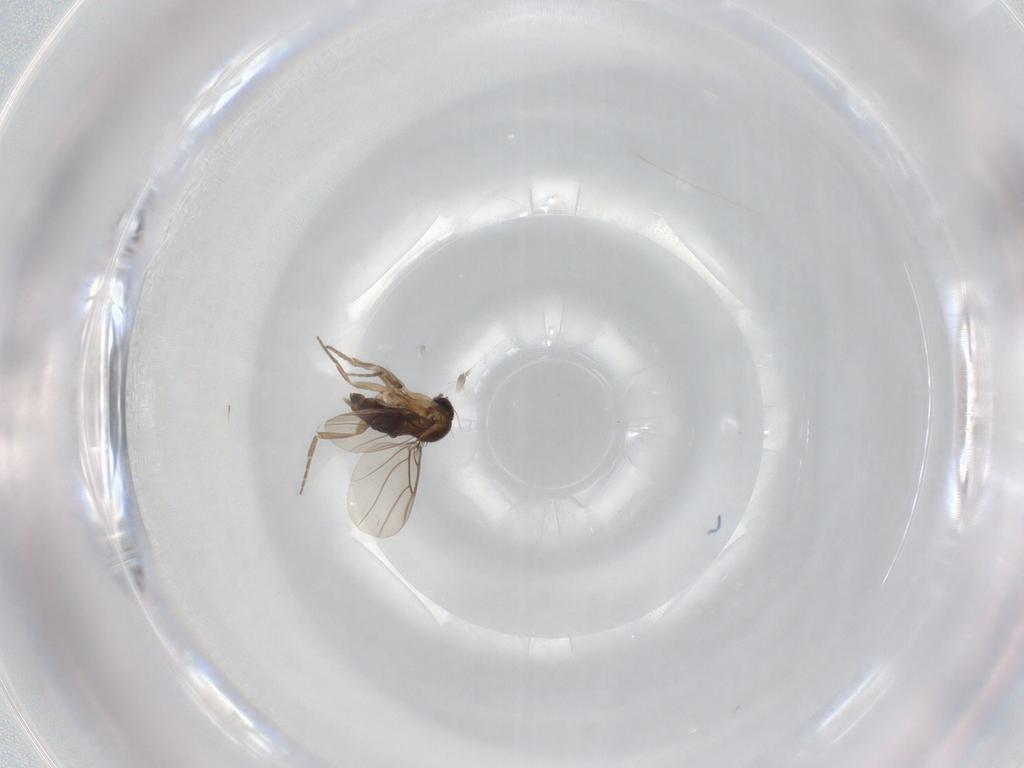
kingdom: Animalia
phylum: Arthropoda
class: Insecta
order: Diptera
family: Phoridae
